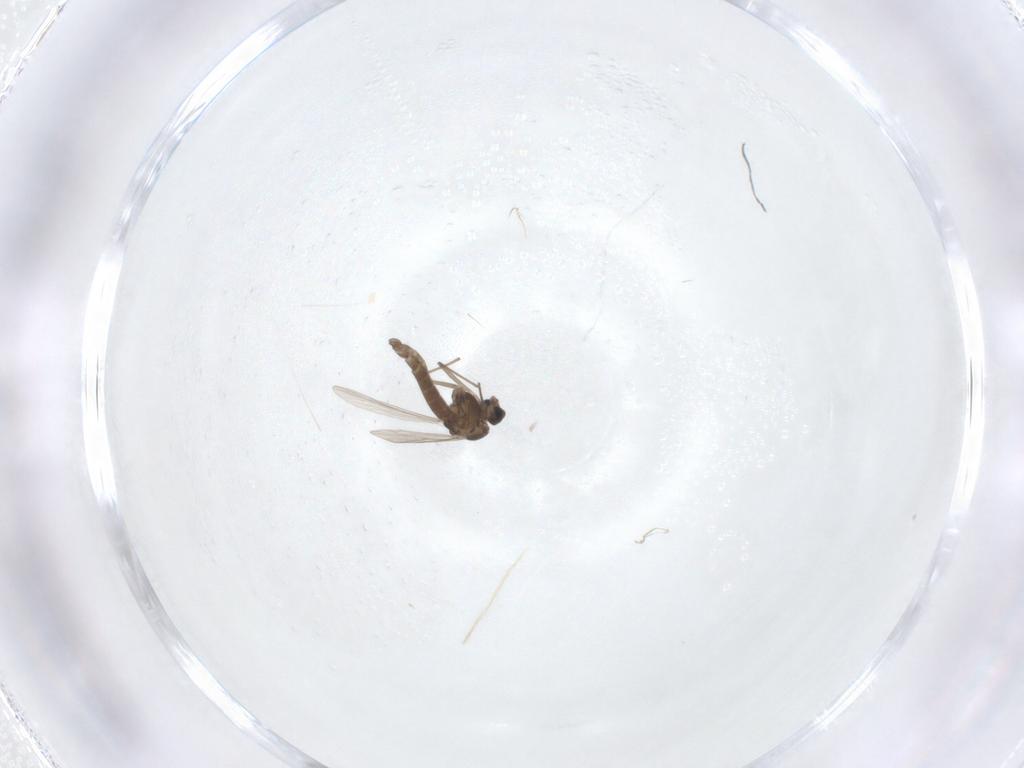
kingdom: Animalia
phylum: Arthropoda
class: Insecta
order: Diptera
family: Chironomidae
